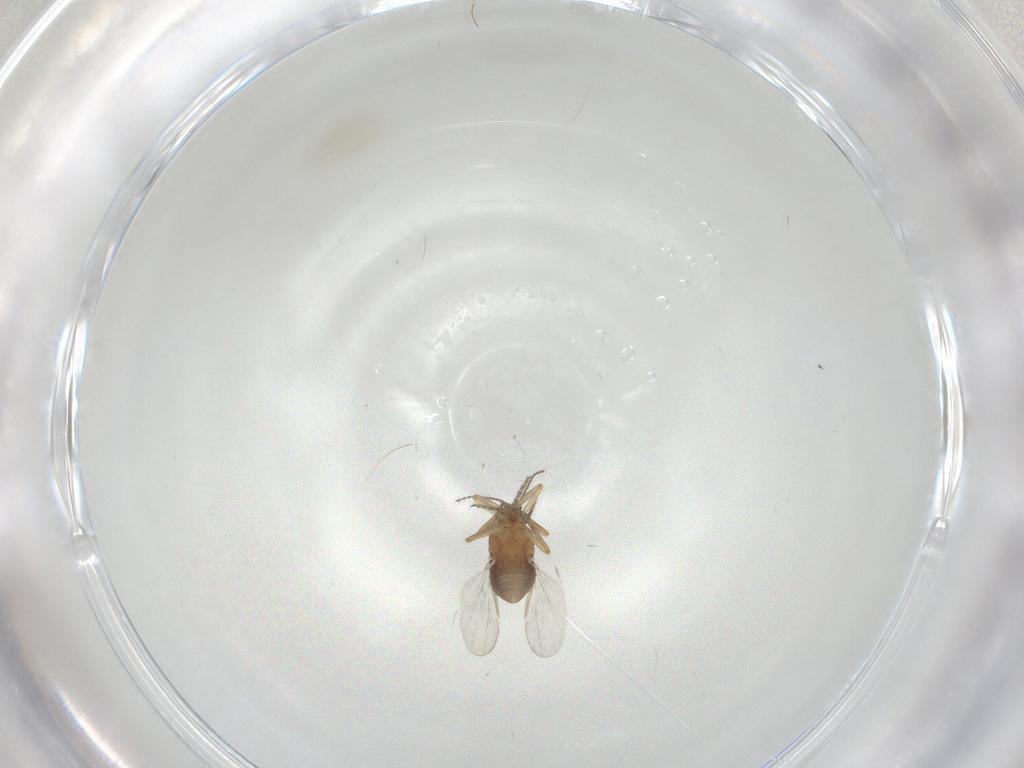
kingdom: Animalia
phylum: Arthropoda
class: Insecta
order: Diptera
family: Ceratopogonidae
